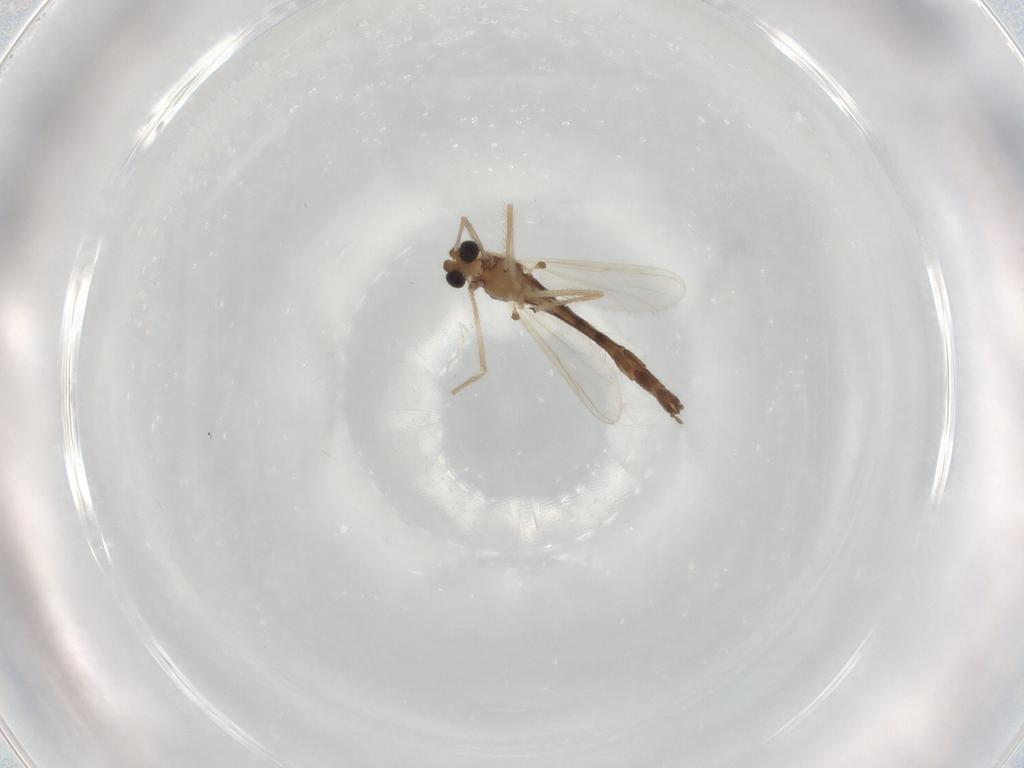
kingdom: Animalia
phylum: Arthropoda
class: Insecta
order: Diptera
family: Chironomidae
